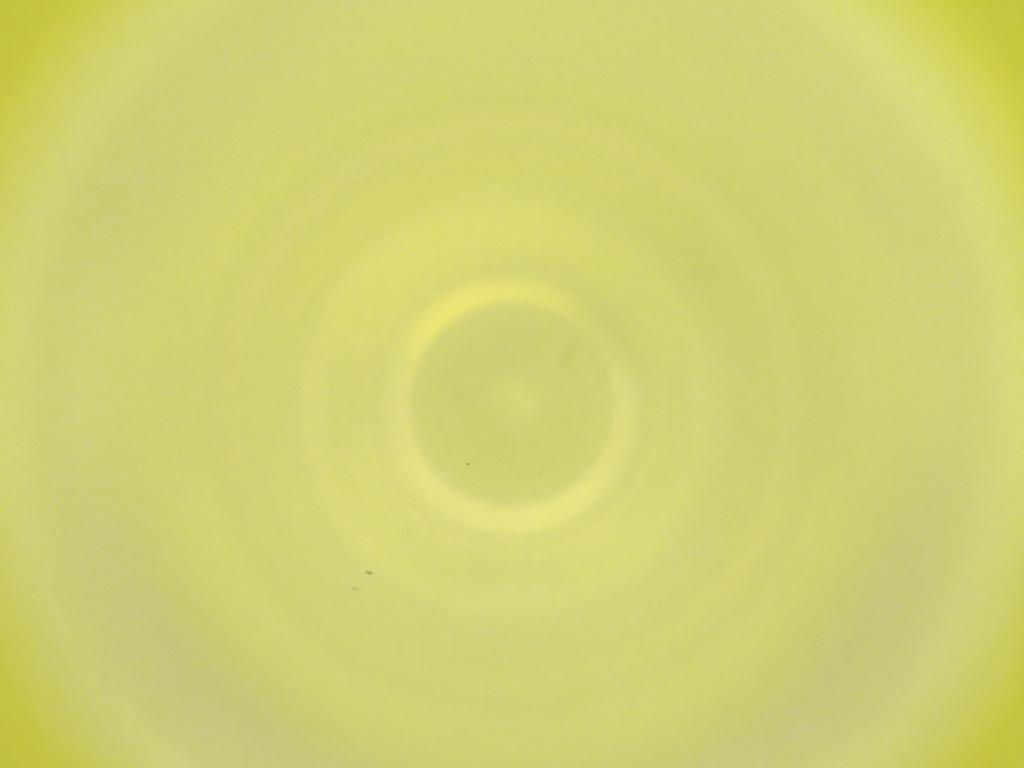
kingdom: Animalia
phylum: Arthropoda
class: Insecta
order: Diptera
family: Cecidomyiidae
